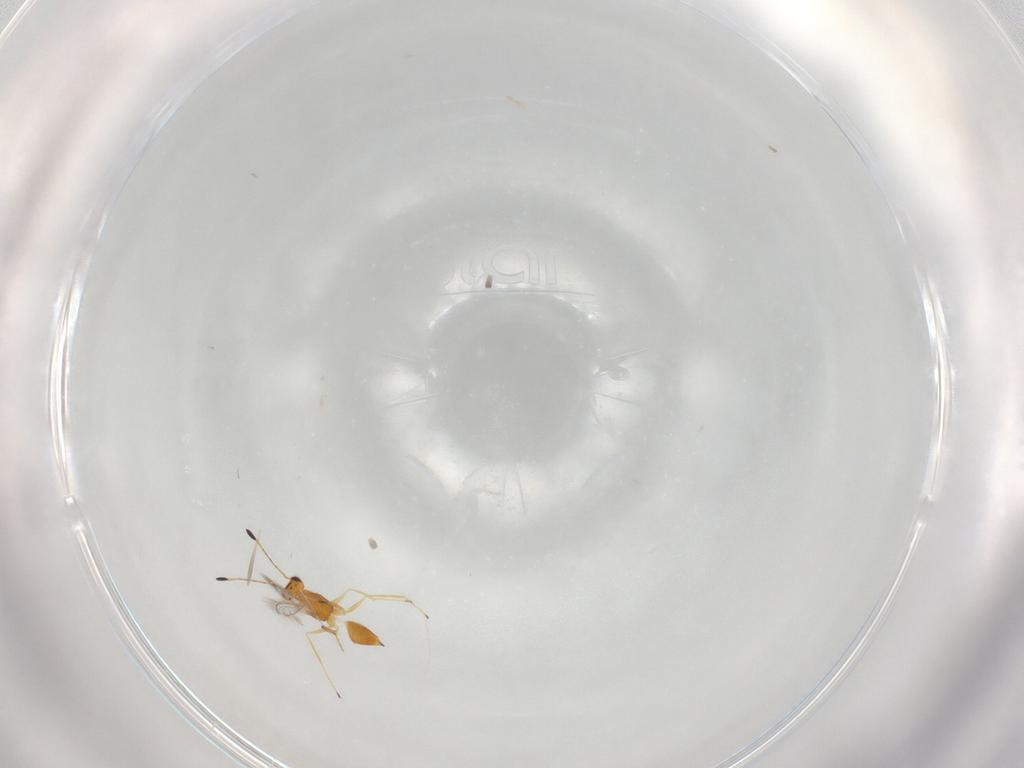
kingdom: Animalia
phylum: Arthropoda
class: Insecta
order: Hymenoptera
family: Mymaridae
